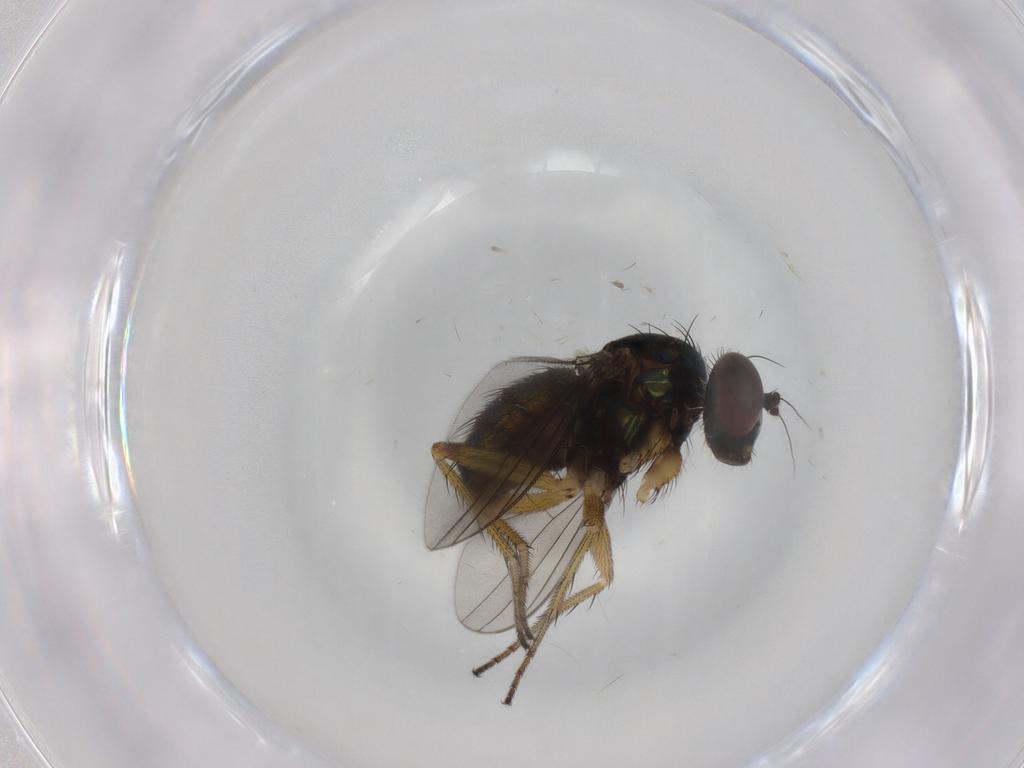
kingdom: Animalia
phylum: Arthropoda
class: Insecta
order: Diptera
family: Dolichopodidae
